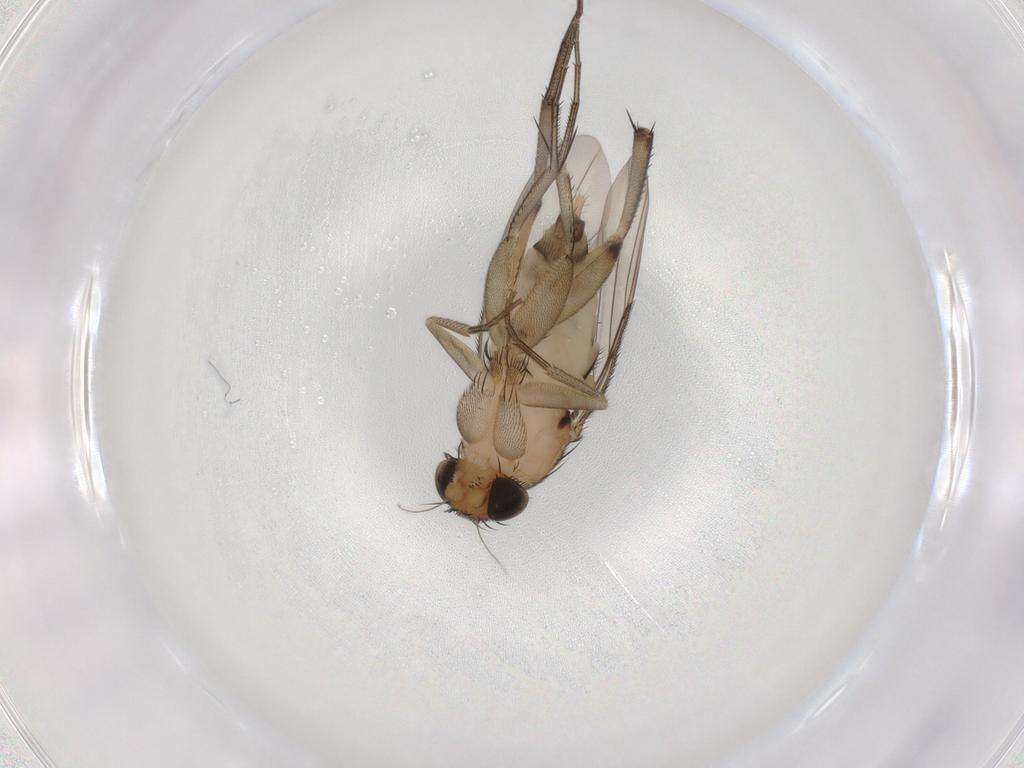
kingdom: Animalia
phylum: Arthropoda
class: Insecta
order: Diptera
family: Phoridae
